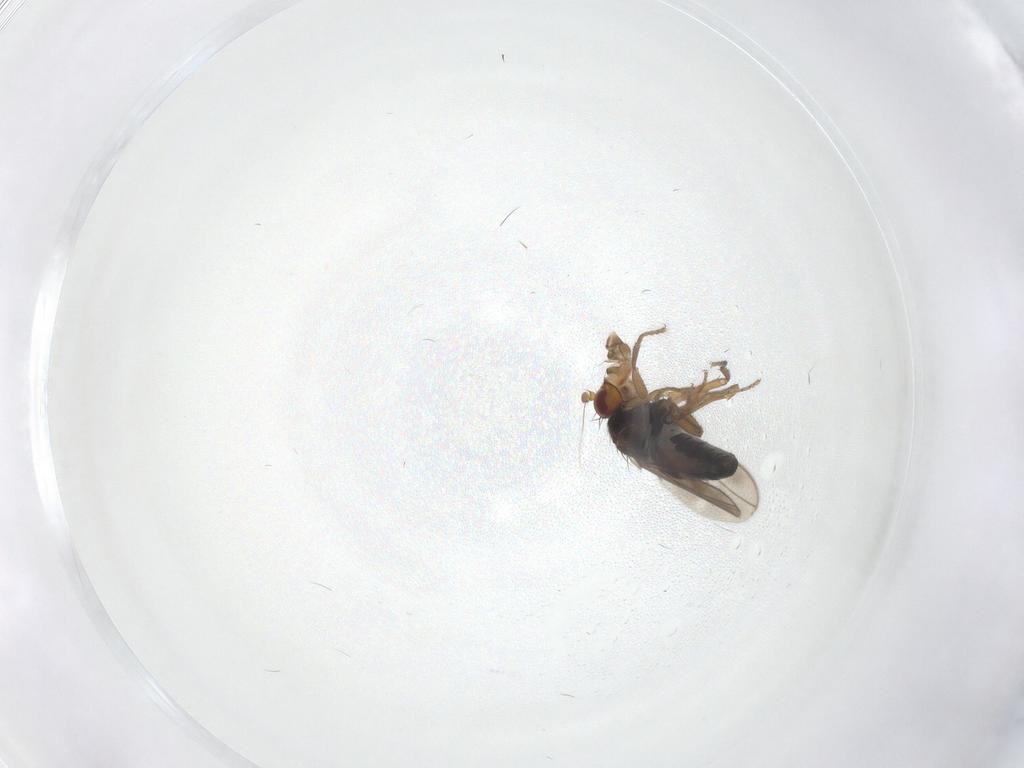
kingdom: Animalia
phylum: Arthropoda
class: Insecta
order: Diptera
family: Sphaeroceridae
